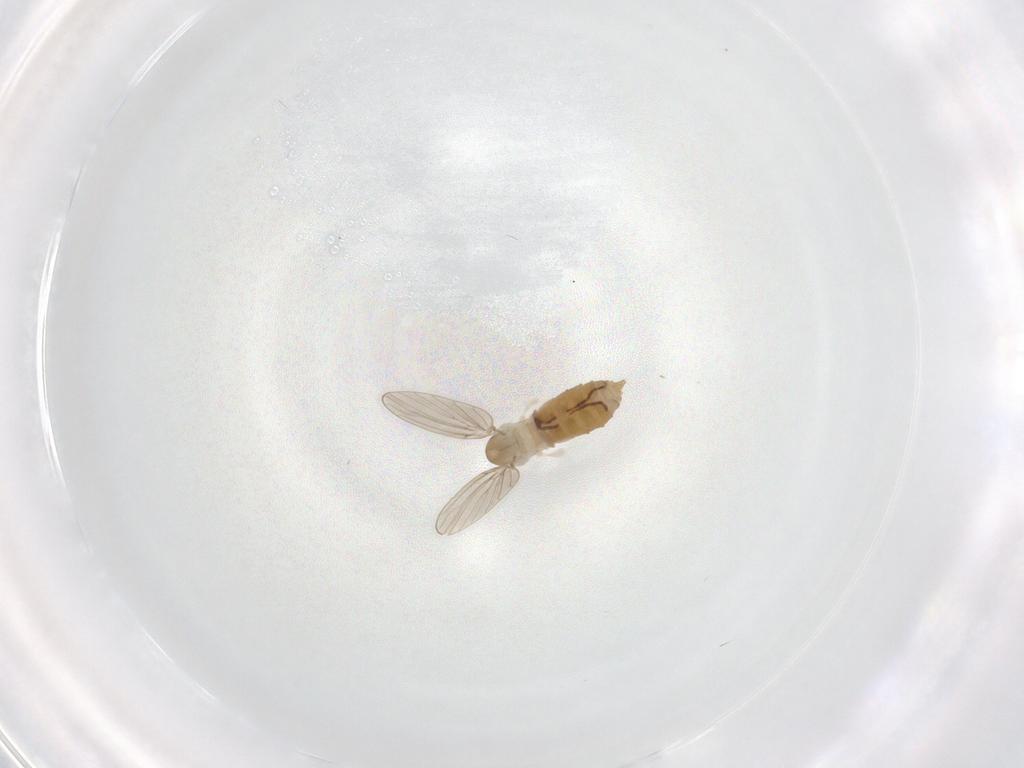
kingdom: Animalia
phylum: Arthropoda
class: Insecta
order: Diptera
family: Psychodidae
